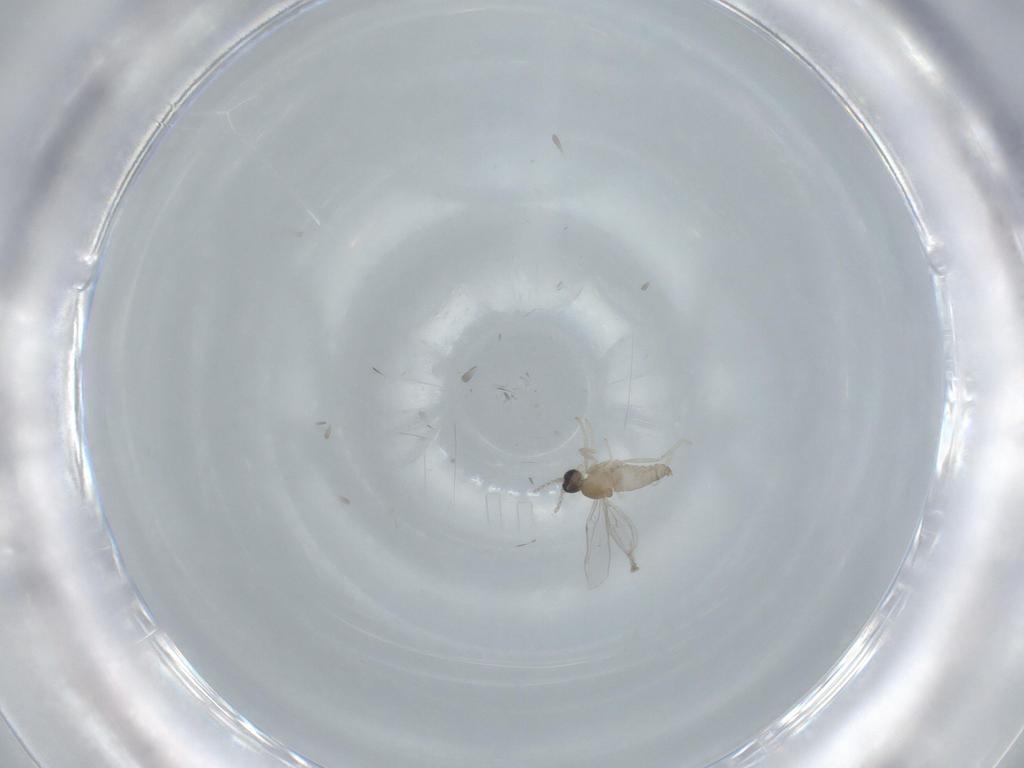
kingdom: Animalia
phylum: Arthropoda
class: Insecta
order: Diptera
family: Cecidomyiidae
